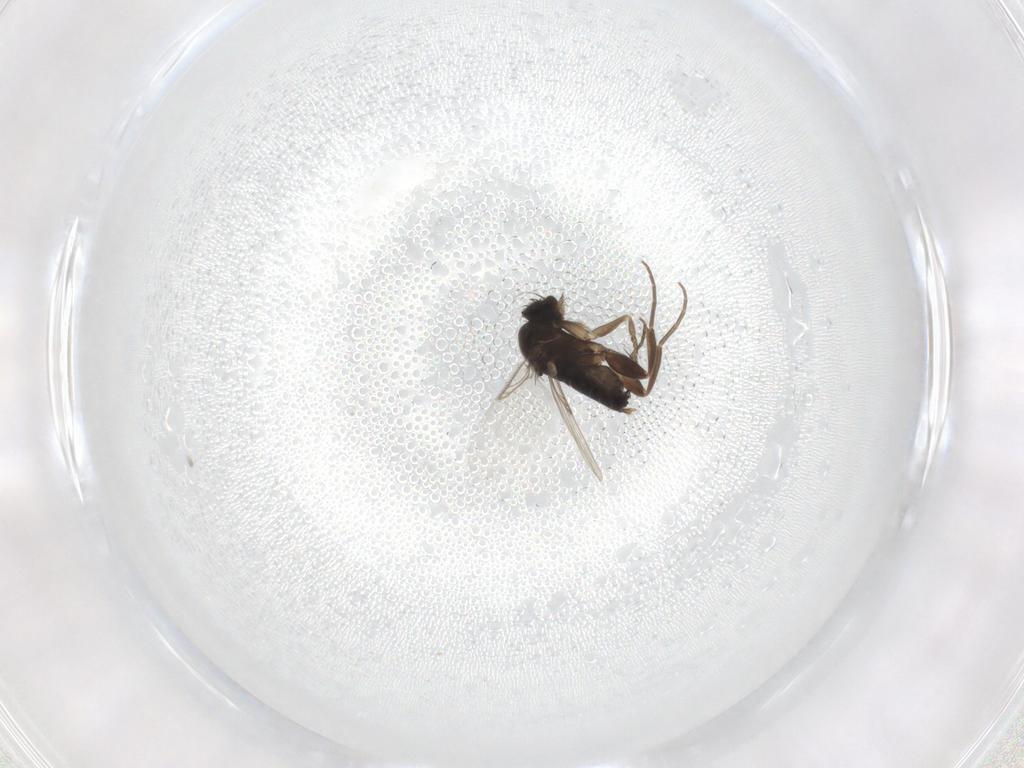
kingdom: Animalia
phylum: Arthropoda
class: Insecta
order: Diptera
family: Phoridae
